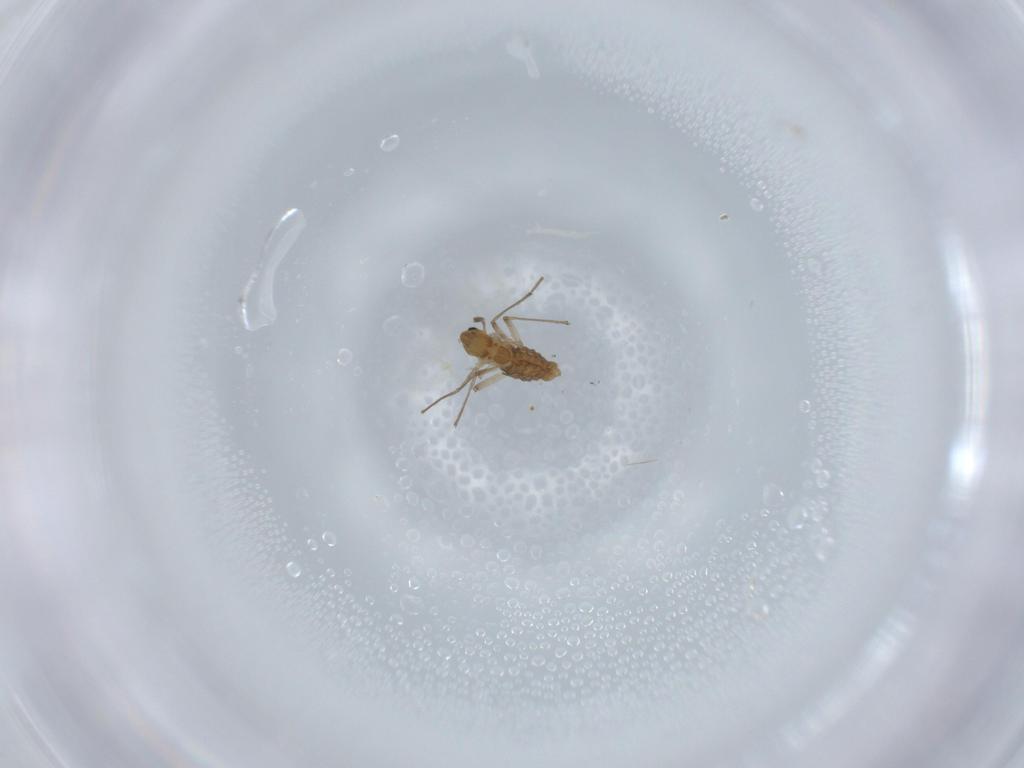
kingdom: Animalia
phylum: Arthropoda
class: Insecta
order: Diptera
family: Chironomidae
